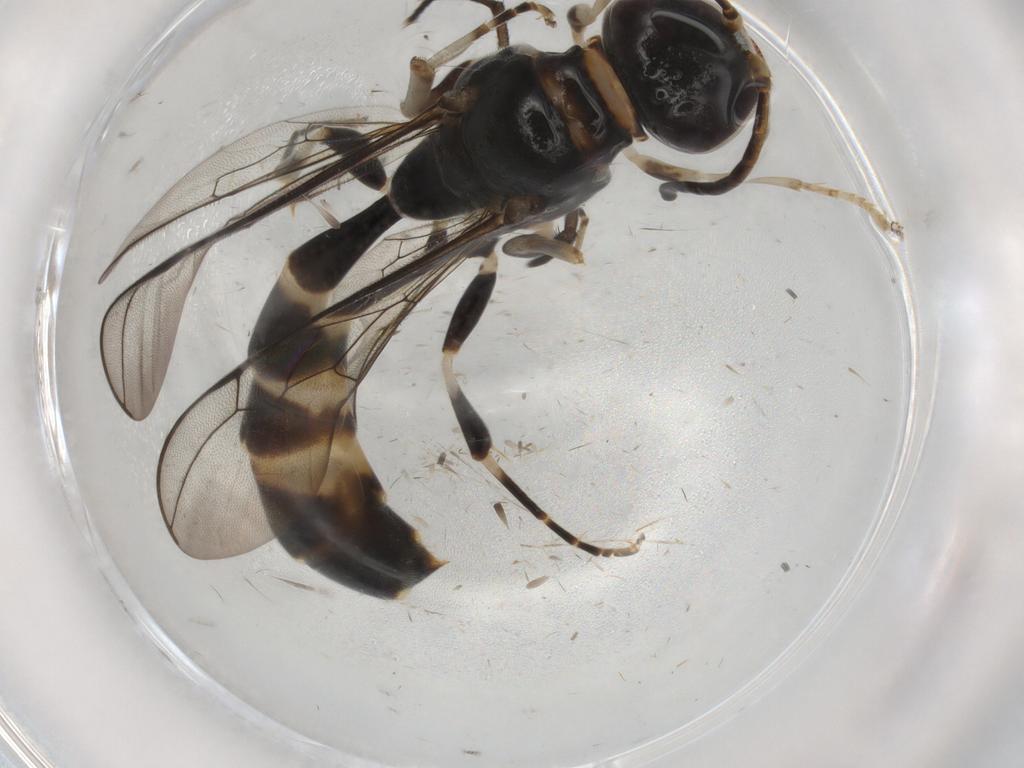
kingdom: Animalia
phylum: Arthropoda
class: Insecta
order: Hymenoptera
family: Crabronidae
